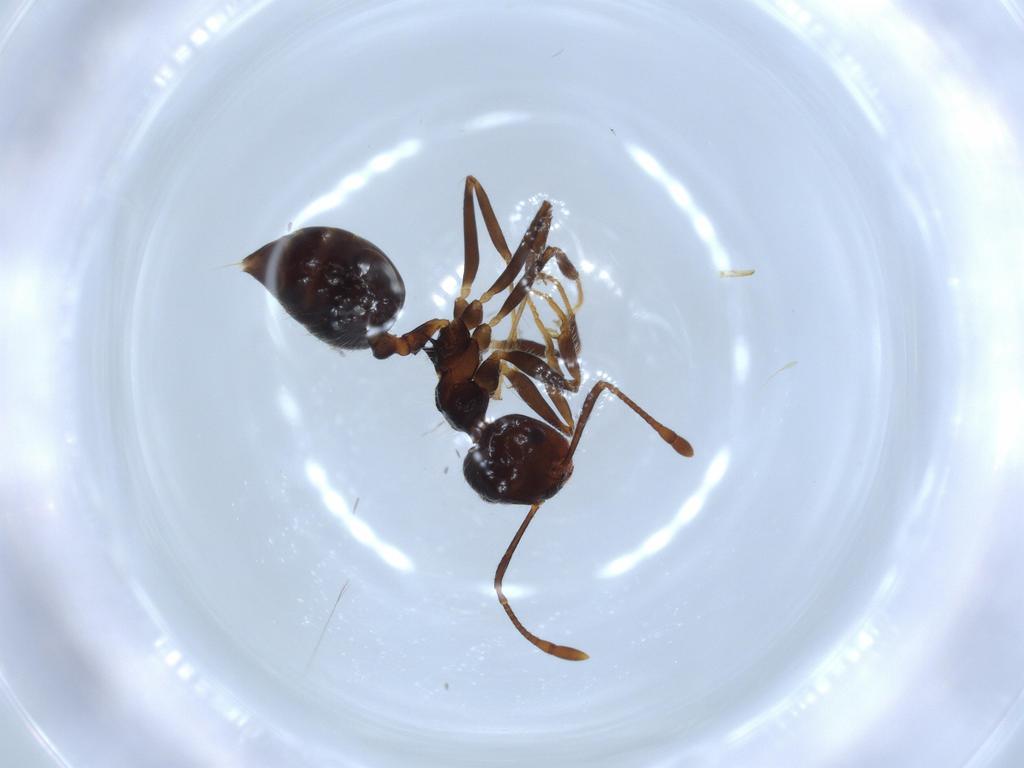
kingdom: Animalia
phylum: Arthropoda
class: Insecta
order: Hymenoptera
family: Formicidae
